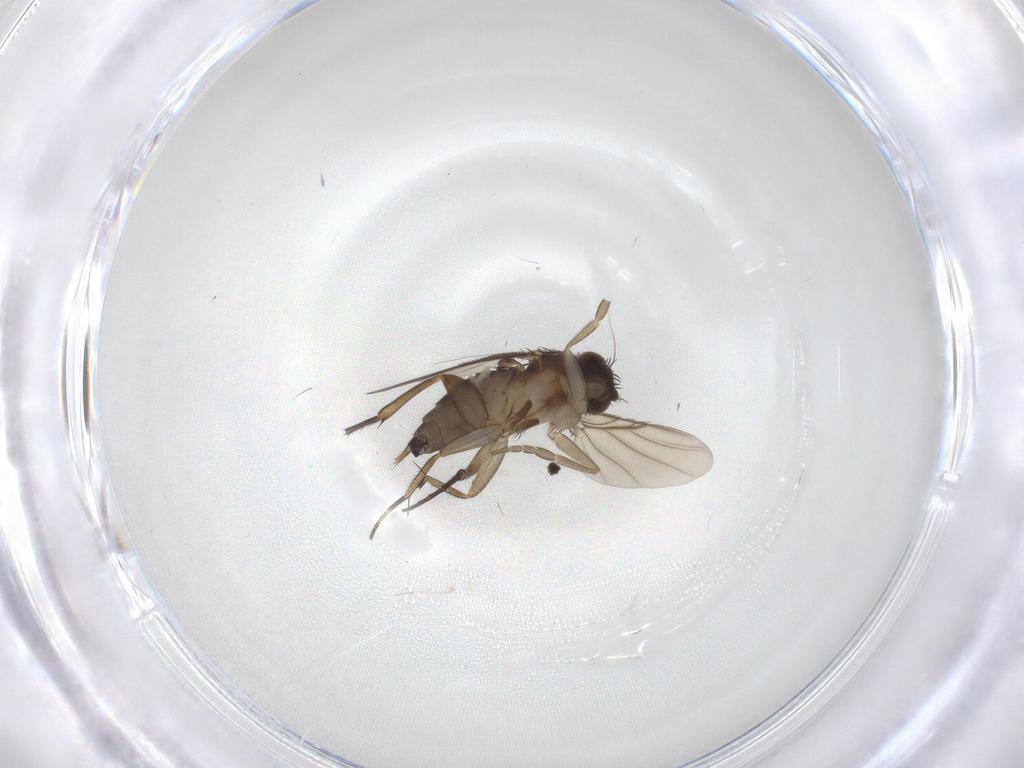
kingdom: Animalia
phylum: Arthropoda
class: Insecta
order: Diptera
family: Phoridae
